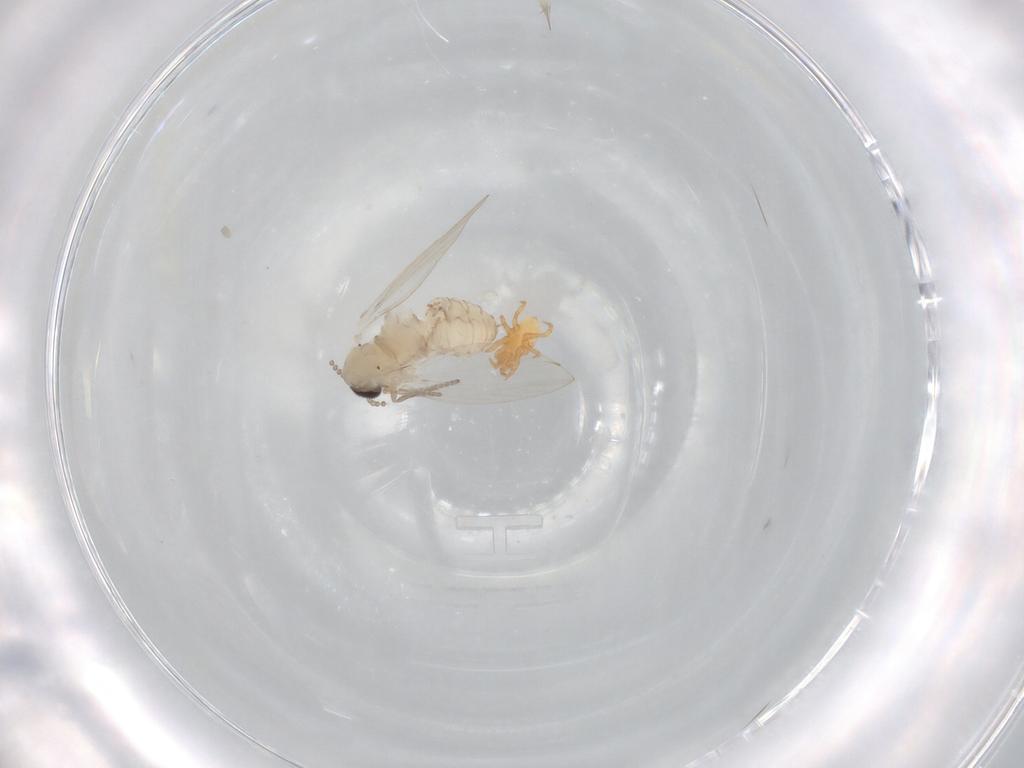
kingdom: Animalia
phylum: Arthropoda
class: Insecta
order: Diptera
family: Psychodidae
